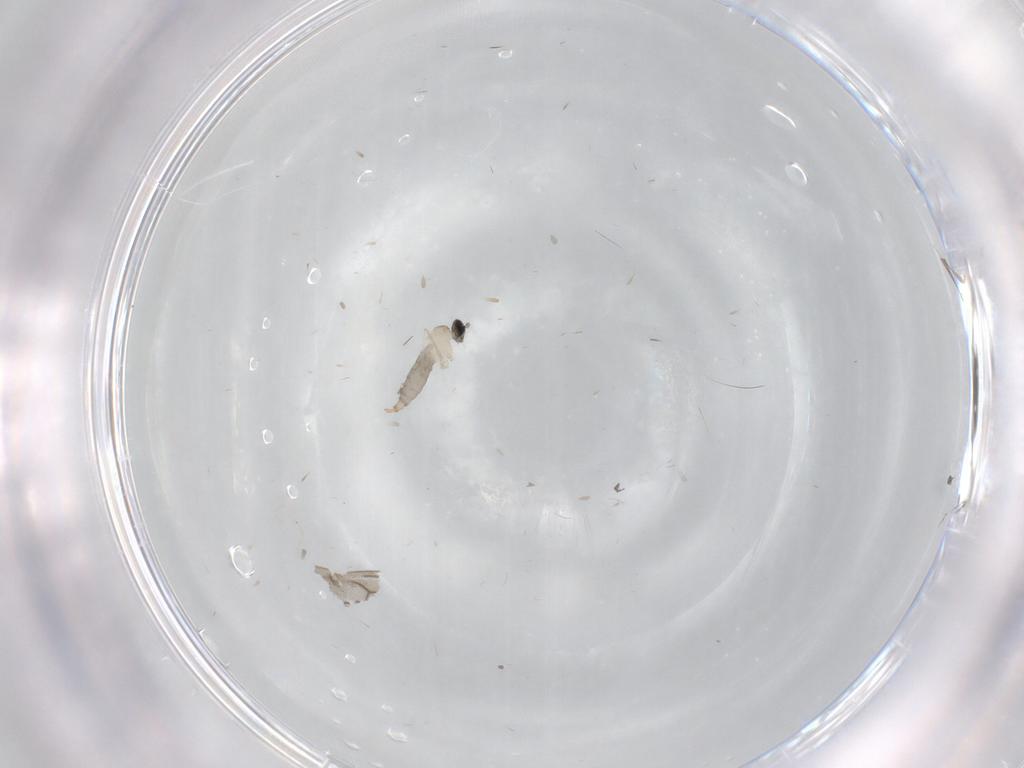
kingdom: Animalia
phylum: Arthropoda
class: Insecta
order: Diptera
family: Cecidomyiidae
